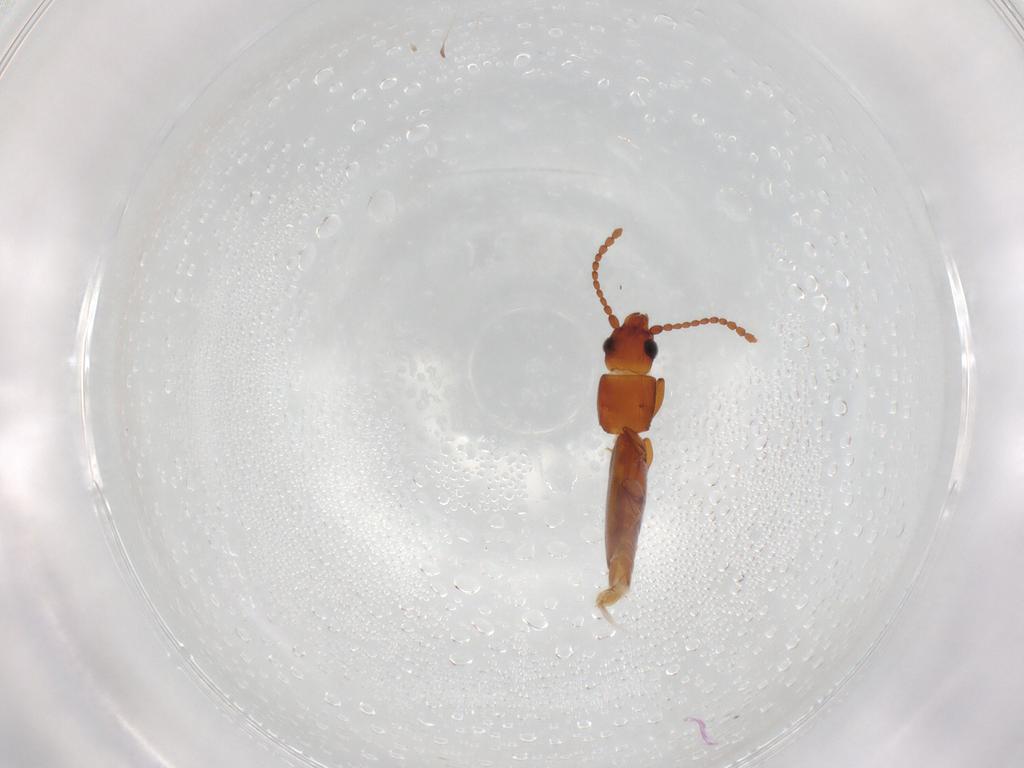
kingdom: Animalia
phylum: Arthropoda
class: Insecta
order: Coleoptera
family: Laemophloeidae
